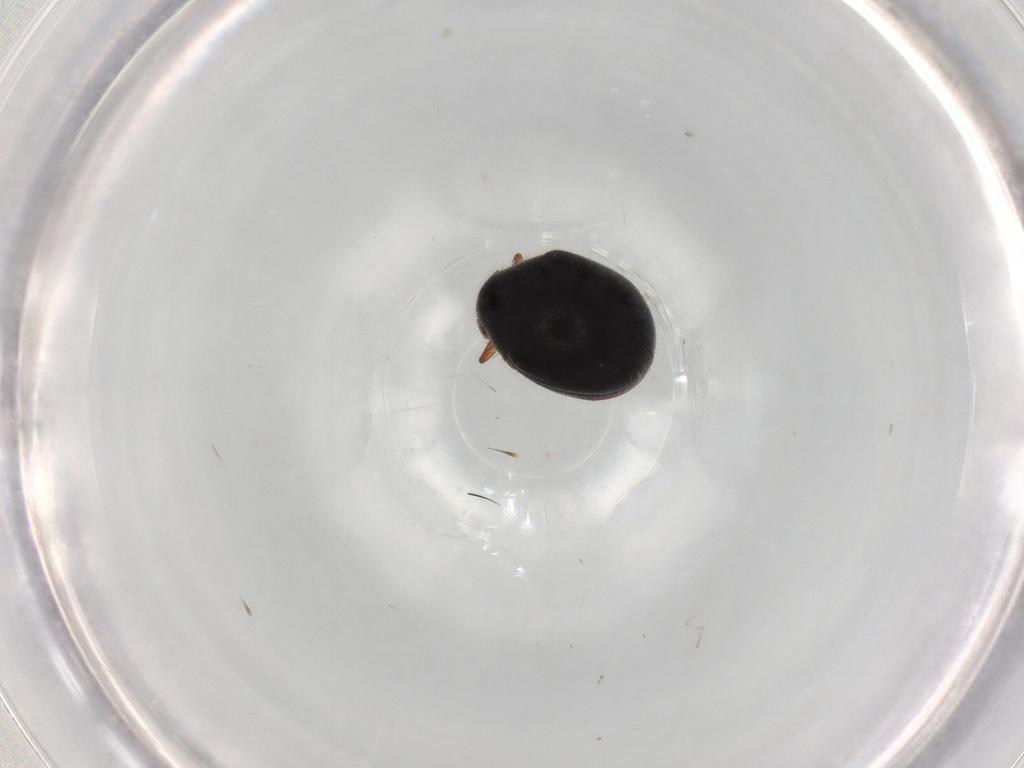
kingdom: Animalia
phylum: Arthropoda
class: Insecta
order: Coleoptera
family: Ptinidae
